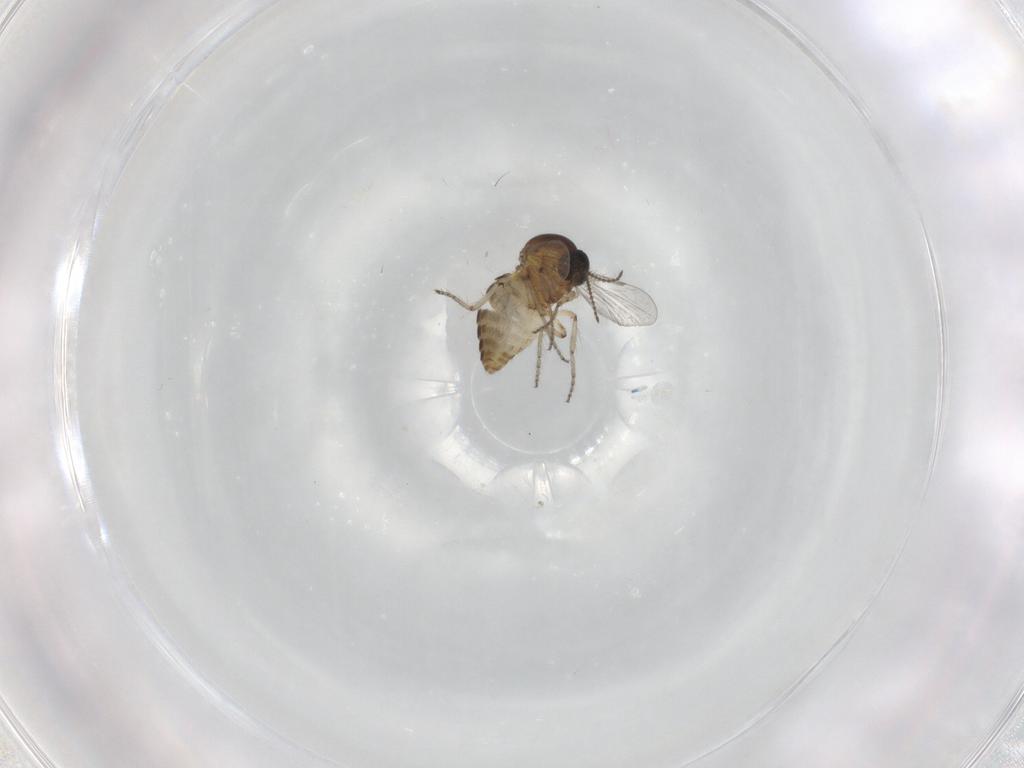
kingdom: Animalia
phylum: Arthropoda
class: Insecta
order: Diptera
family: Ceratopogonidae
